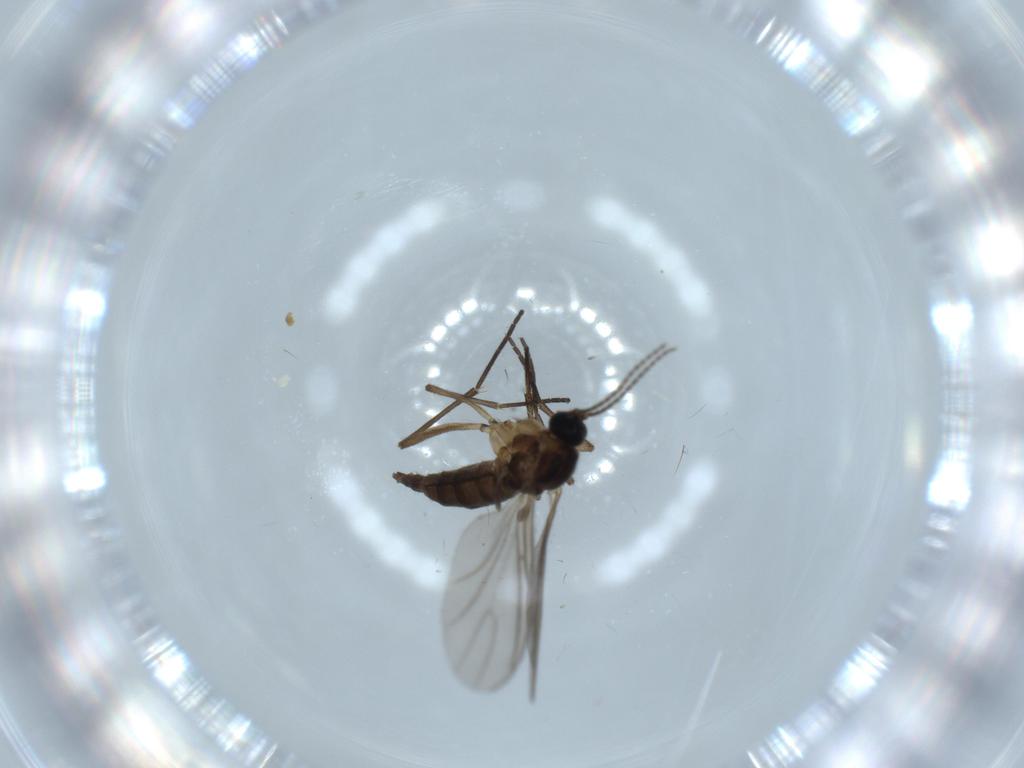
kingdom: Animalia
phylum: Arthropoda
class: Insecta
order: Diptera
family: Sciaridae
